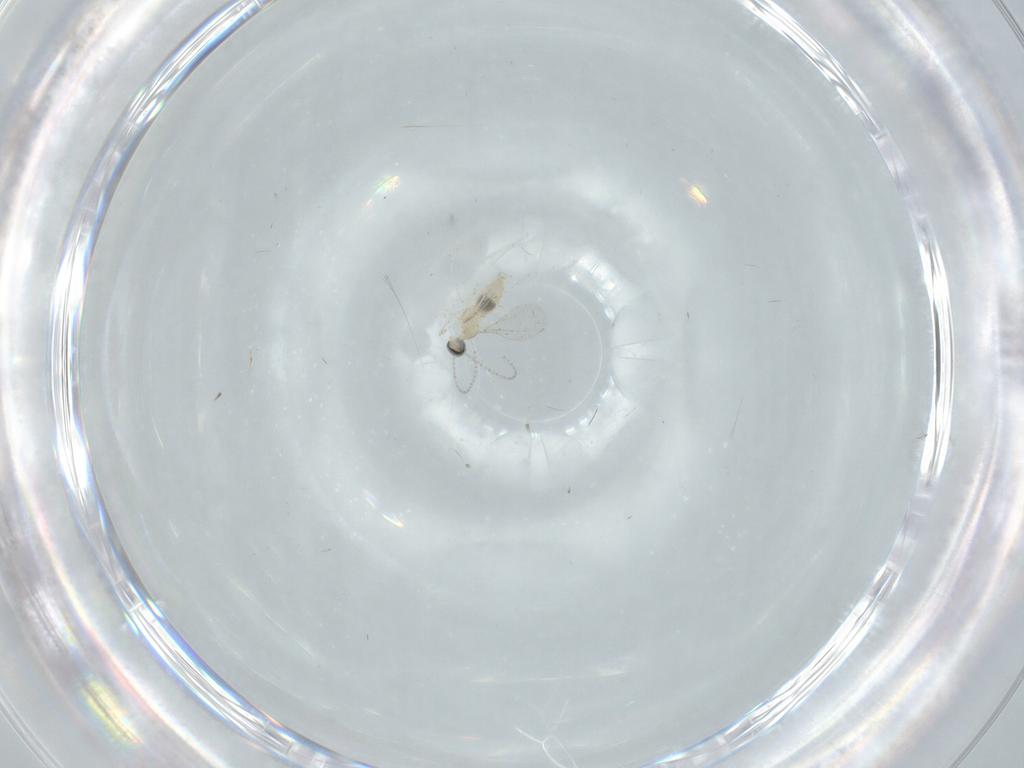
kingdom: Animalia
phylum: Arthropoda
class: Insecta
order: Diptera
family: Cecidomyiidae
